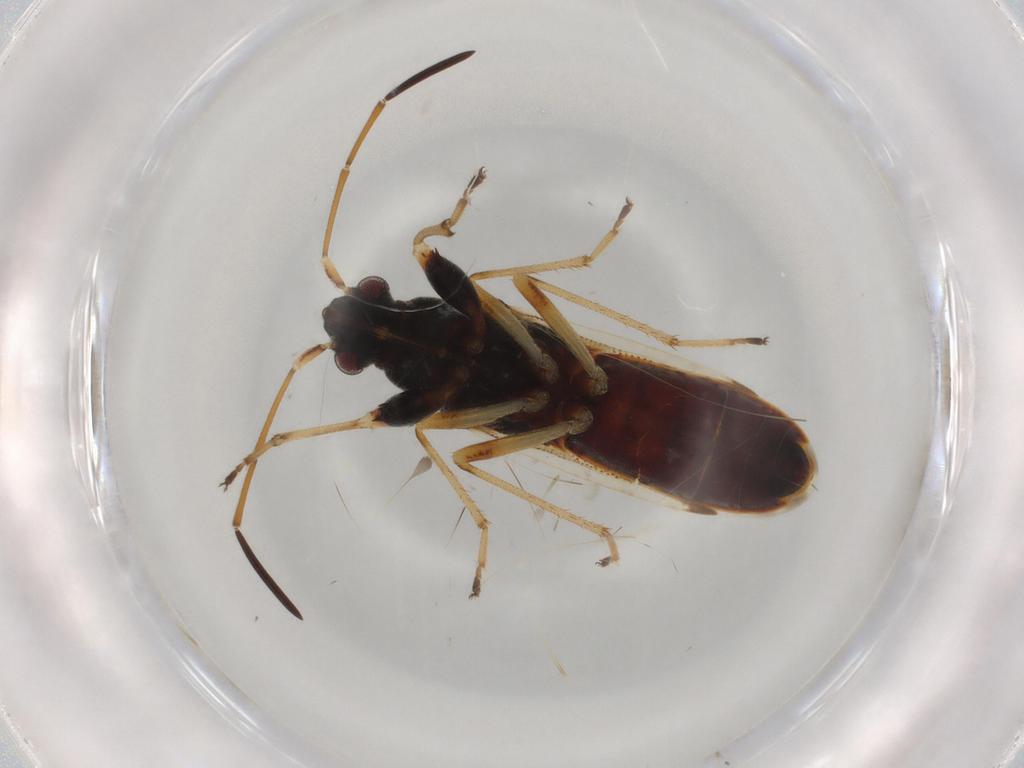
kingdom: Animalia
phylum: Arthropoda
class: Insecta
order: Hemiptera
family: Rhyparochromidae
